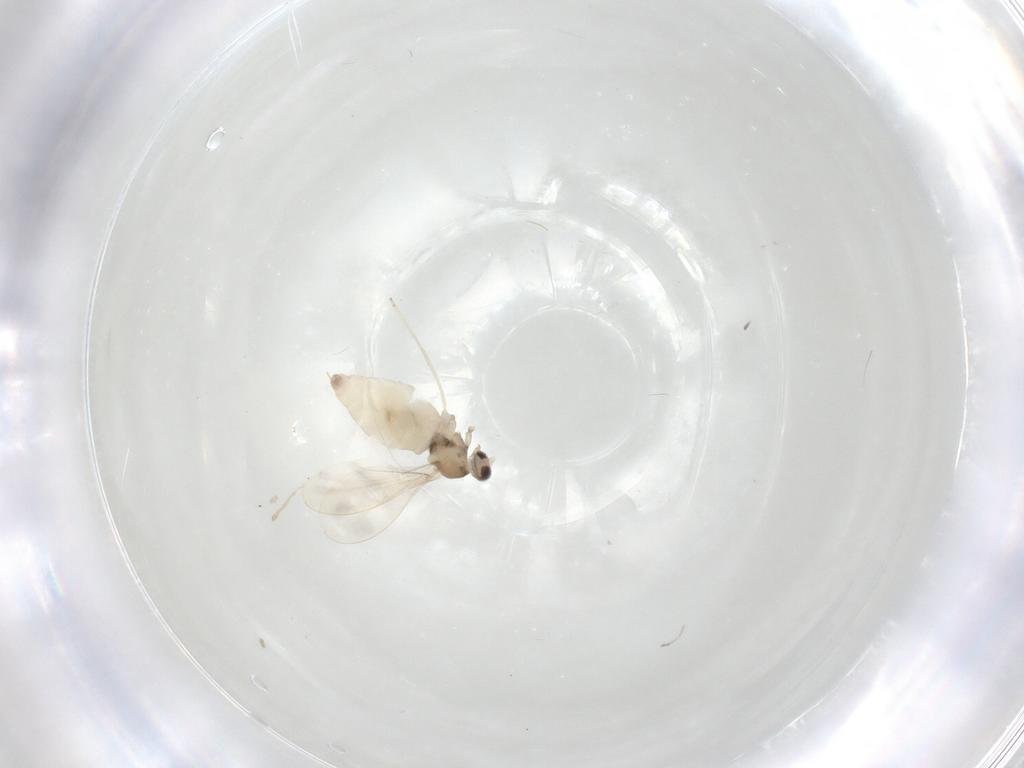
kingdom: Animalia
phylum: Arthropoda
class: Insecta
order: Diptera
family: Cecidomyiidae
